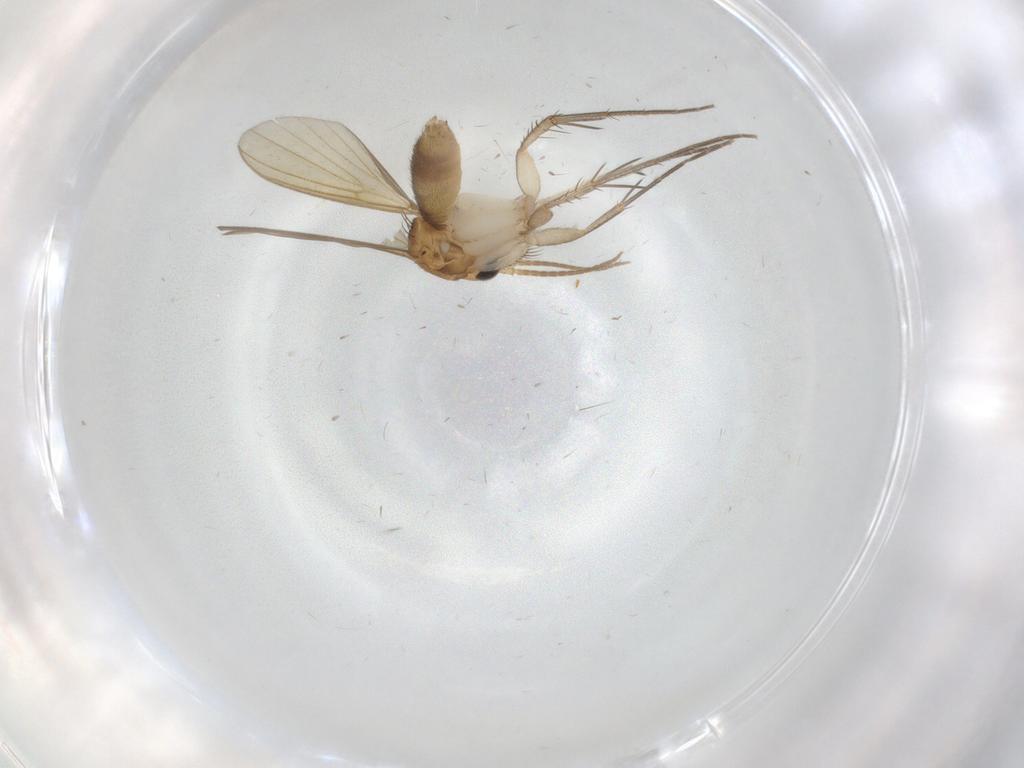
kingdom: Animalia
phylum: Arthropoda
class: Insecta
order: Diptera
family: Mycetophilidae
